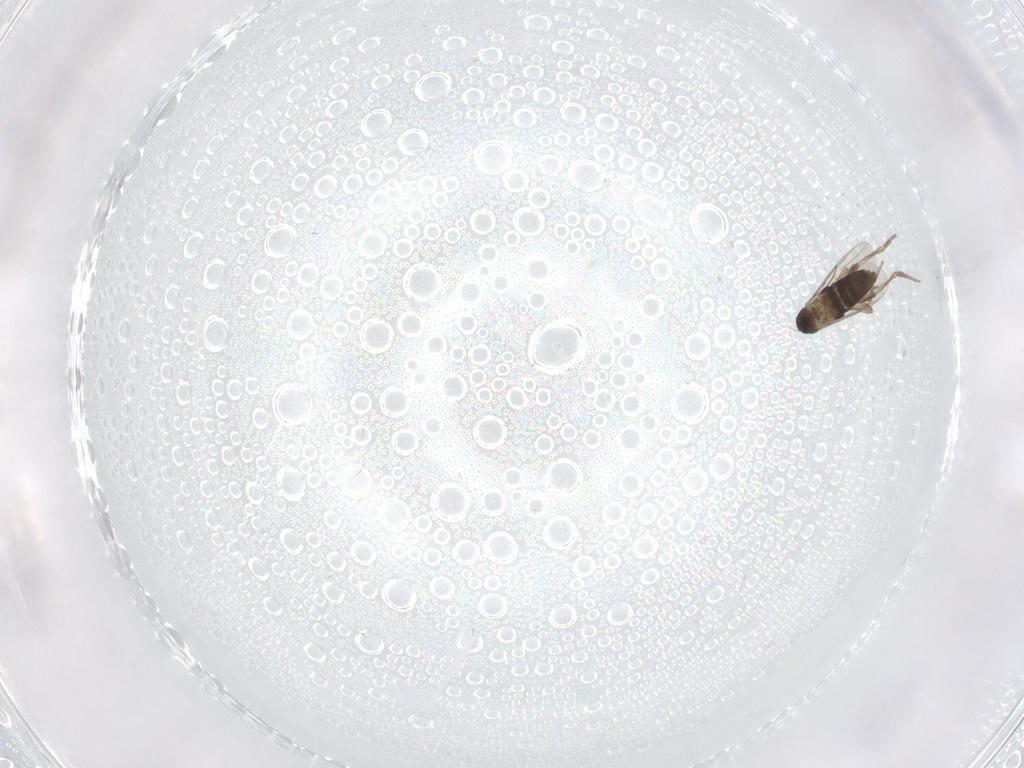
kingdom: Animalia
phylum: Arthropoda
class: Insecta
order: Diptera
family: Phoridae
